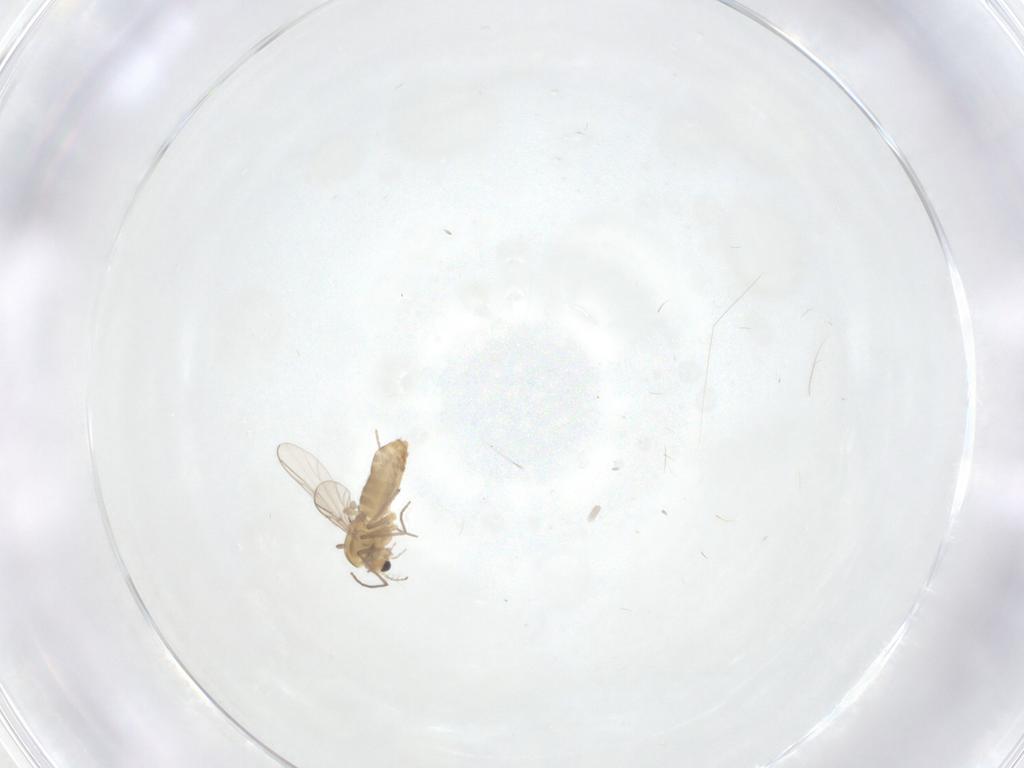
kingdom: Animalia
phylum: Arthropoda
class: Insecta
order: Diptera
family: Chironomidae
